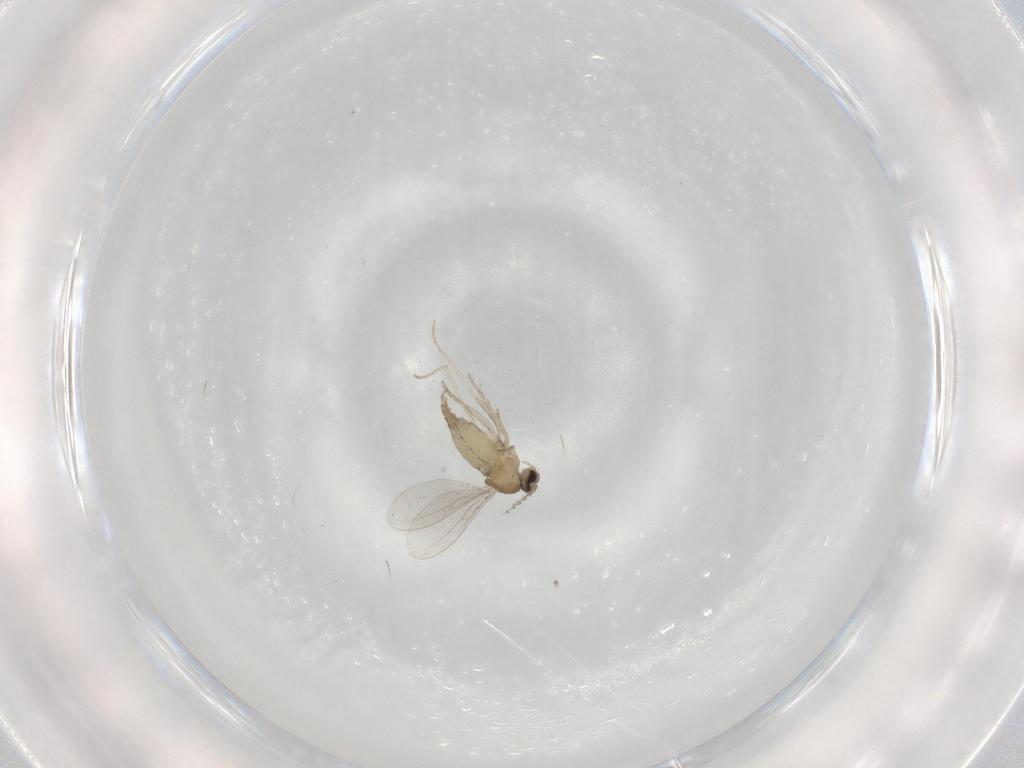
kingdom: Animalia
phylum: Arthropoda
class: Insecta
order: Diptera
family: Cecidomyiidae
